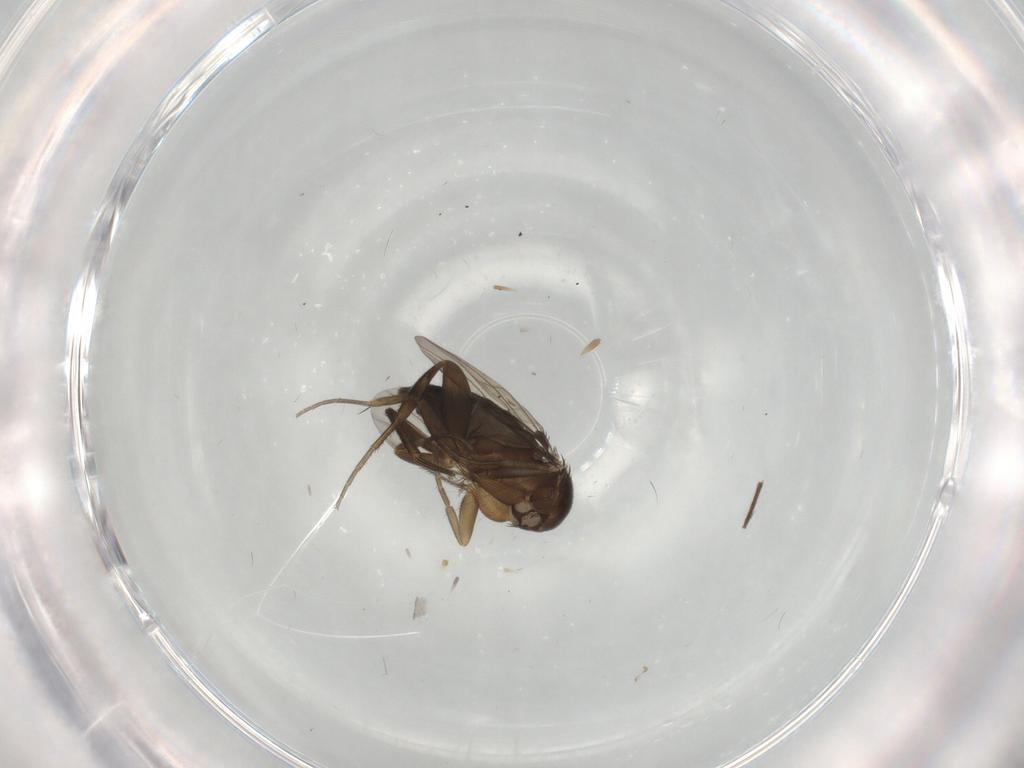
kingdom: Animalia
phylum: Arthropoda
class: Insecta
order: Diptera
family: Phoridae
